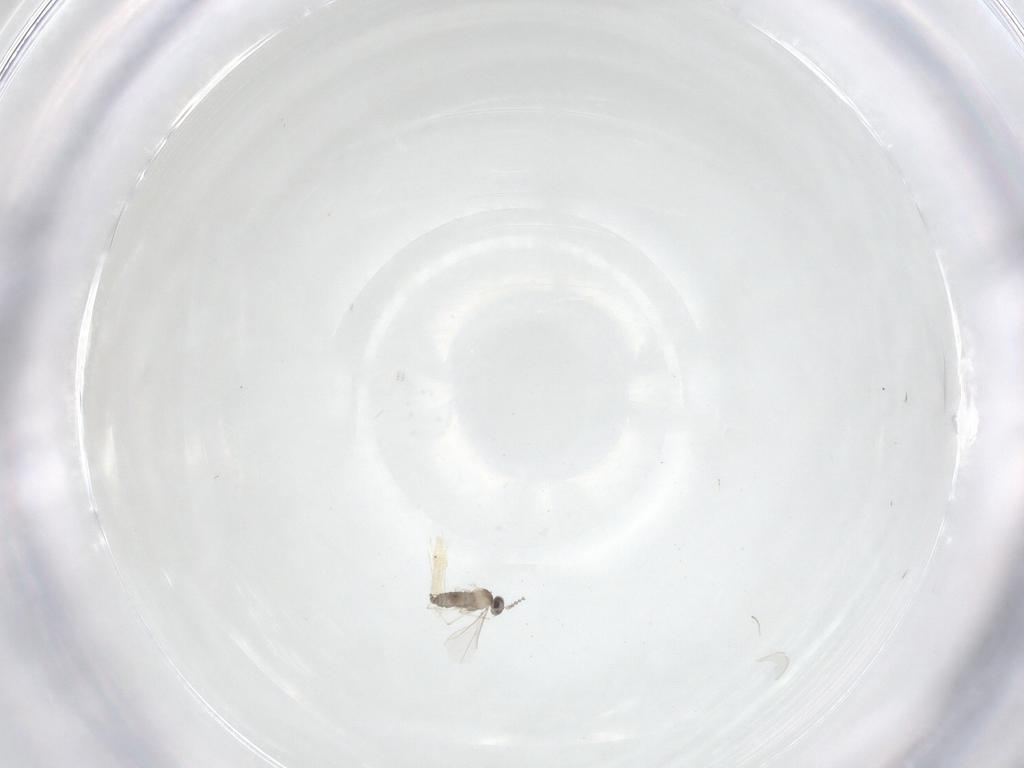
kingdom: Animalia
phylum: Arthropoda
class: Insecta
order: Diptera
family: Cecidomyiidae
